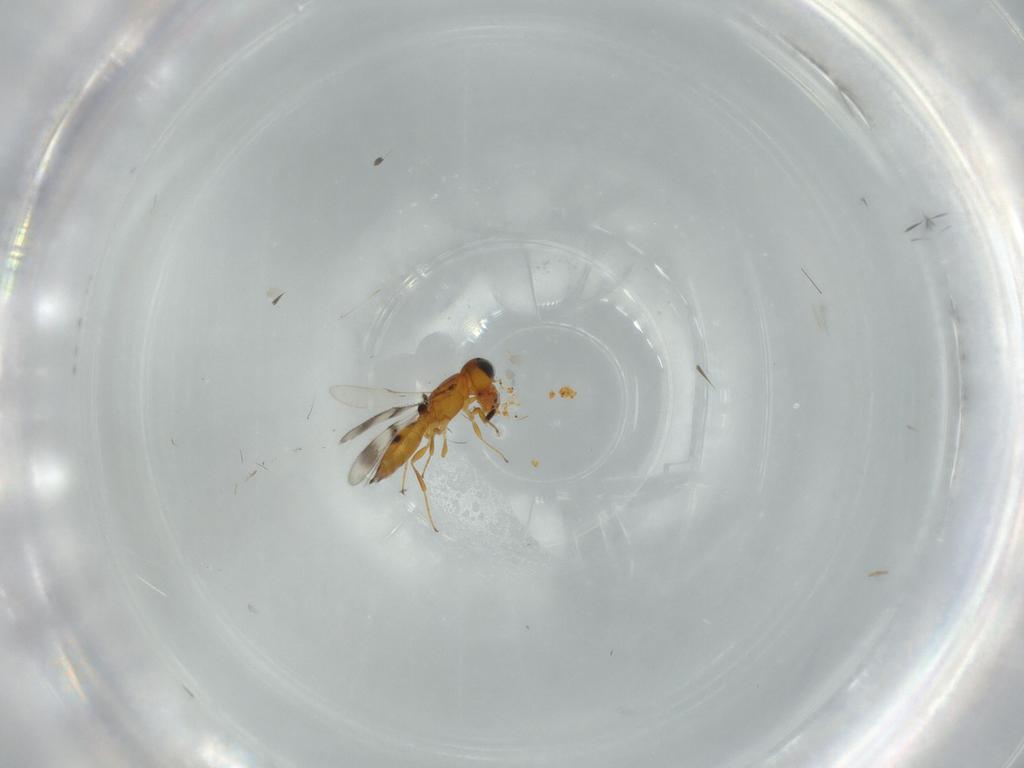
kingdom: Animalia
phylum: Arthropoda
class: Insecta
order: Hymenoptera
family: Scelionidae
